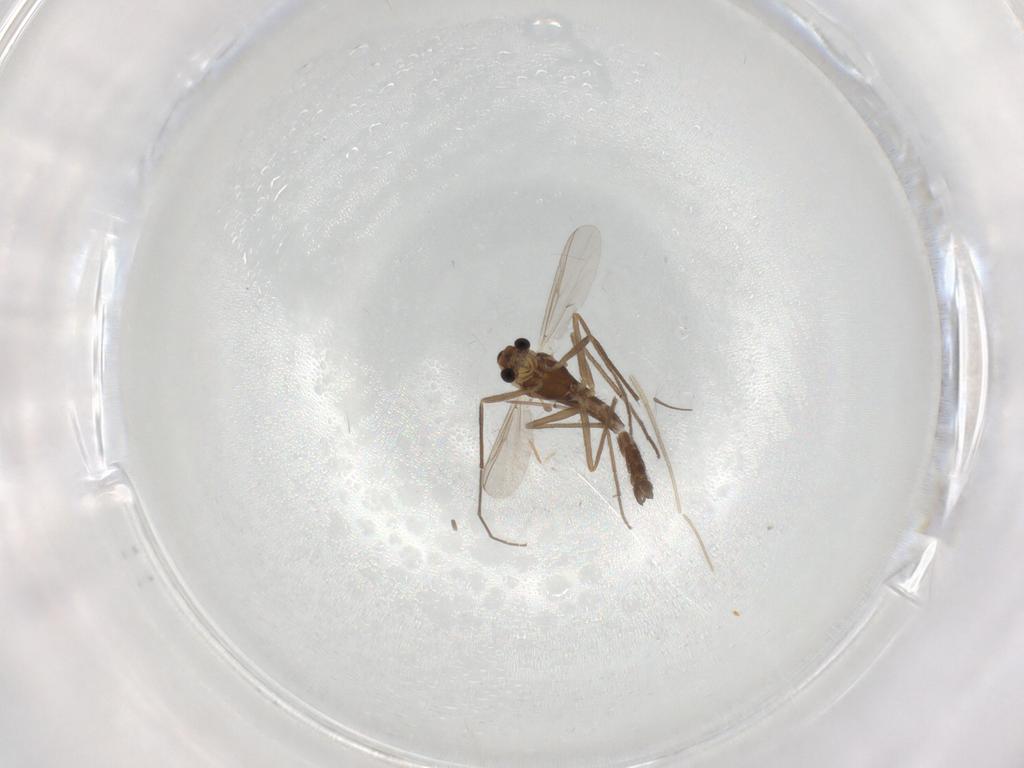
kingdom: Animalia
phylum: Arthropoda
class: Insecta
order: Diptera
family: Chironomidae
